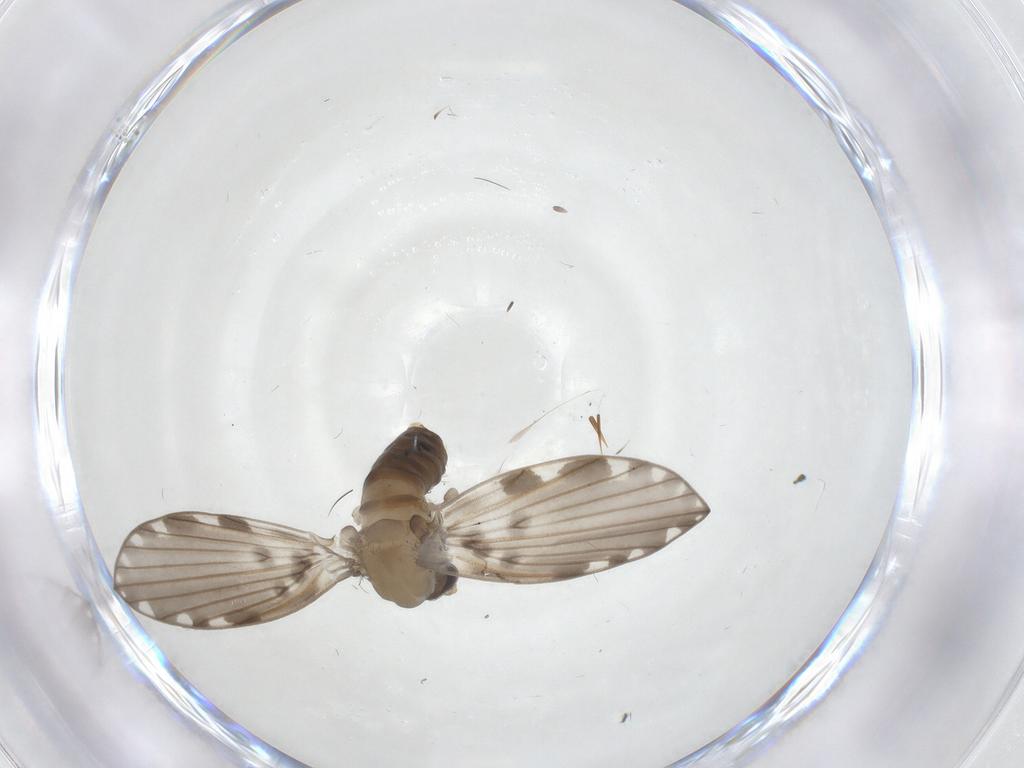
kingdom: Animalia
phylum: Arthropoda
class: Insecta
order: Diptera
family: Psychodidae
